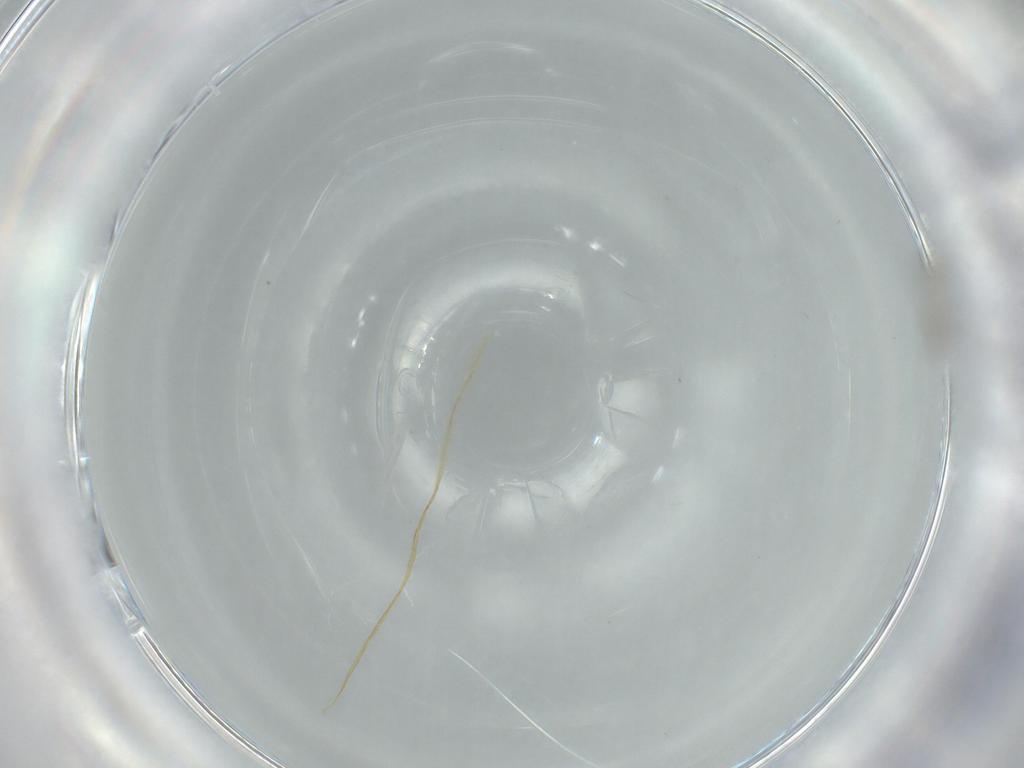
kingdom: Animalia
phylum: Arthropoda
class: Insecta
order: Diptera
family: Cecidomyiidae
